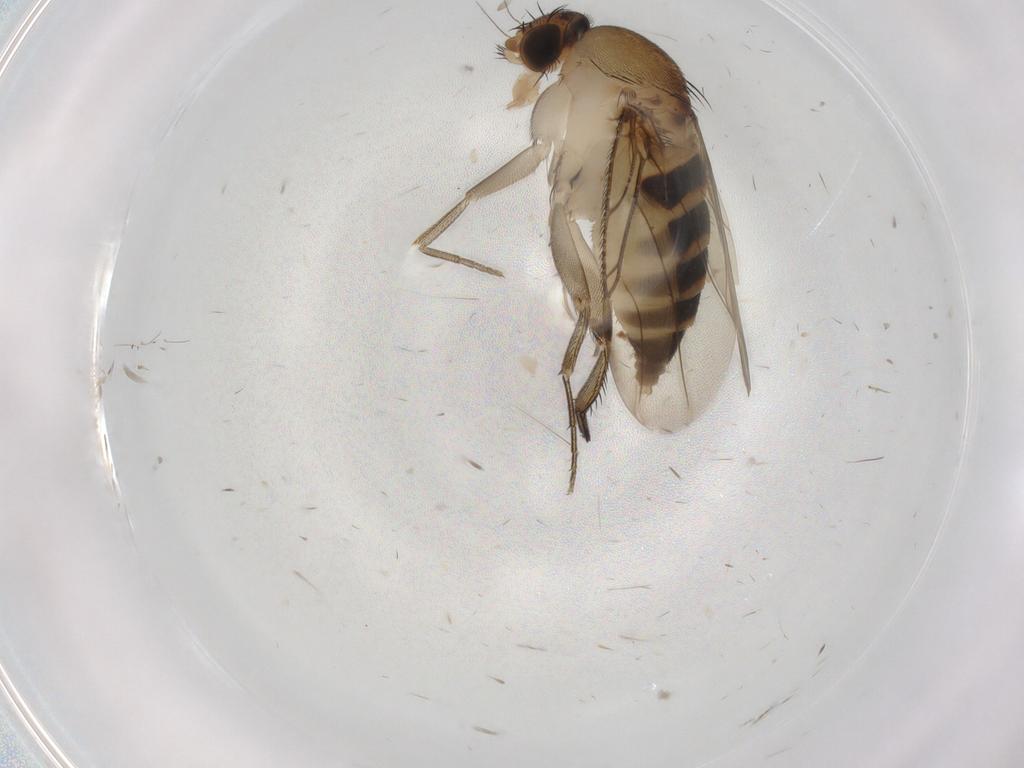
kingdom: Animalia
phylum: Arthropoda
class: Insecta
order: Diptera
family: Phoridae
